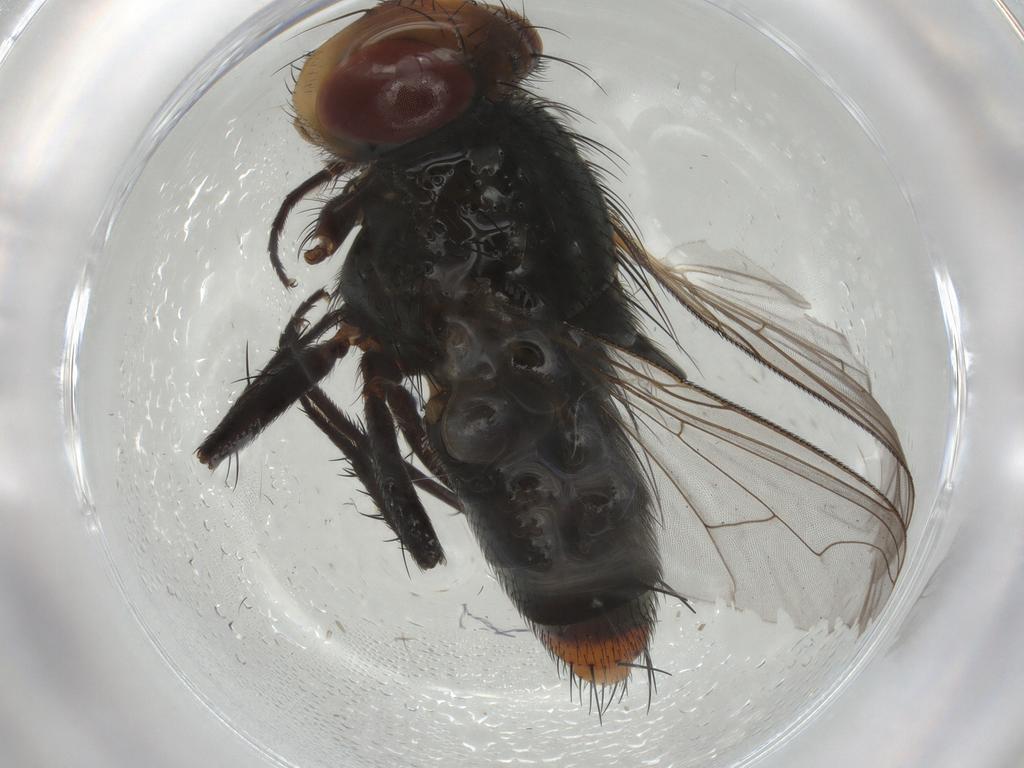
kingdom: Animalia
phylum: Arthropoda
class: Insecta
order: Diptera
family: Sarcophagidae
